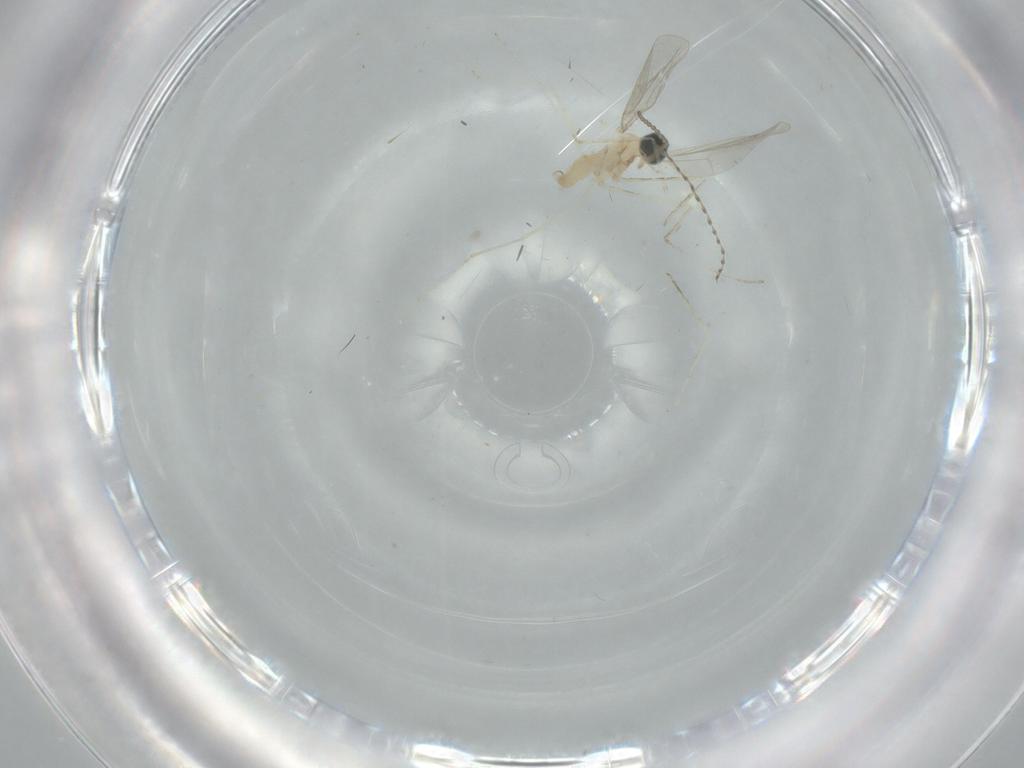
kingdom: Animalia
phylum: Arthropoda
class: Insecta
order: Diptera
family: Cecidomyiidae
